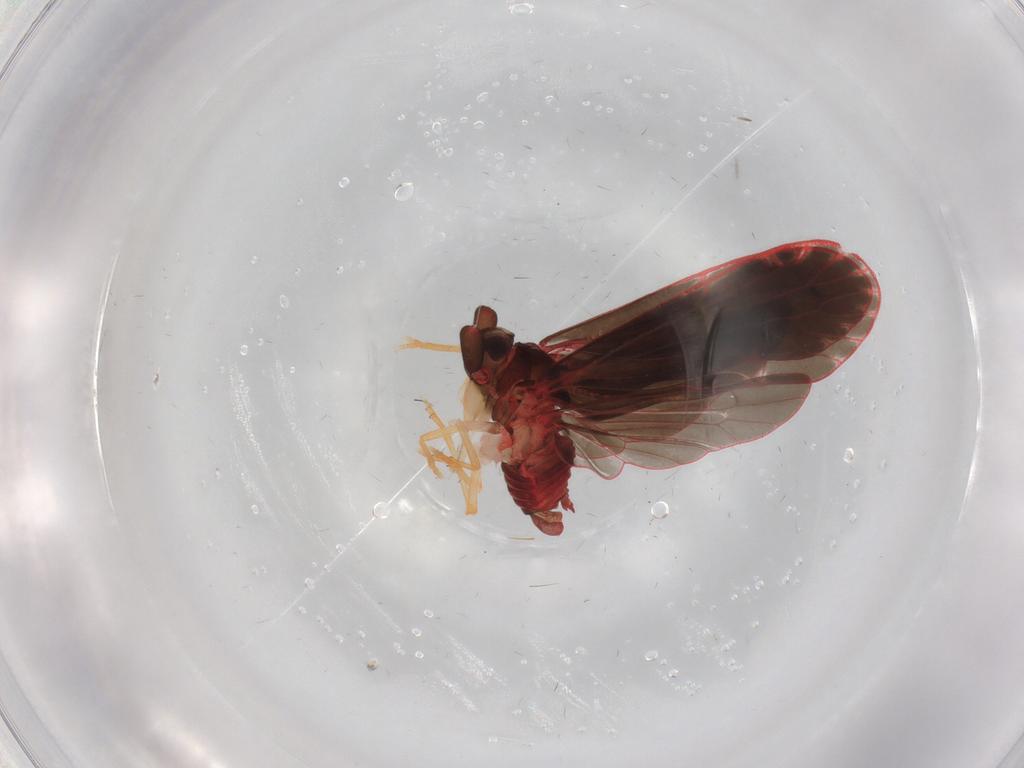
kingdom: Animalia
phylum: Arthropoda
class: Insecta
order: Hemiptera
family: Derbidae
